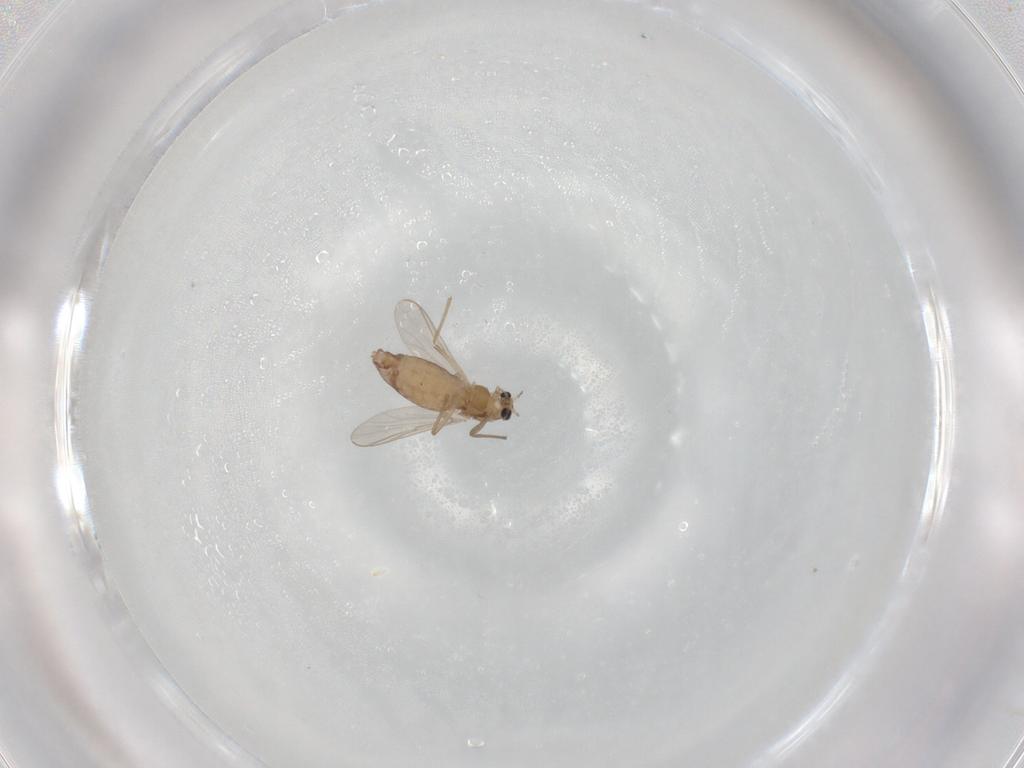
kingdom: Animalia
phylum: Arthropoda
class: Insecta
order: Diptera
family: Chironomidae
